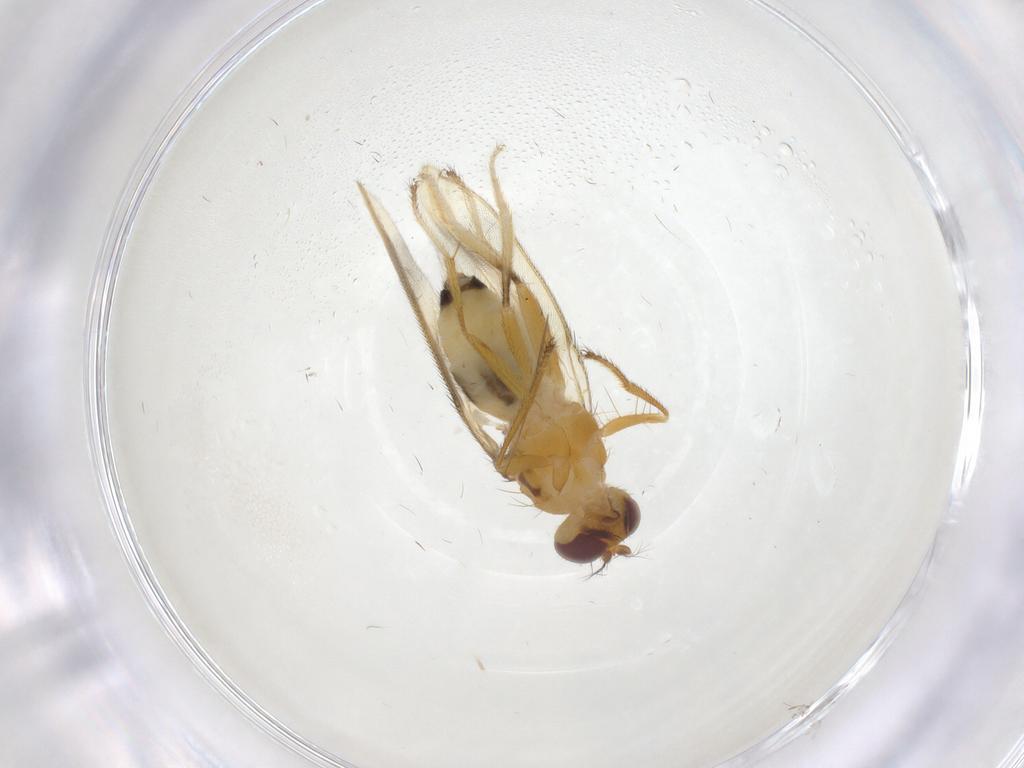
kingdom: Animalia
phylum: Arthropoda
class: Insecta
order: Diptera
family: Periscelididae
